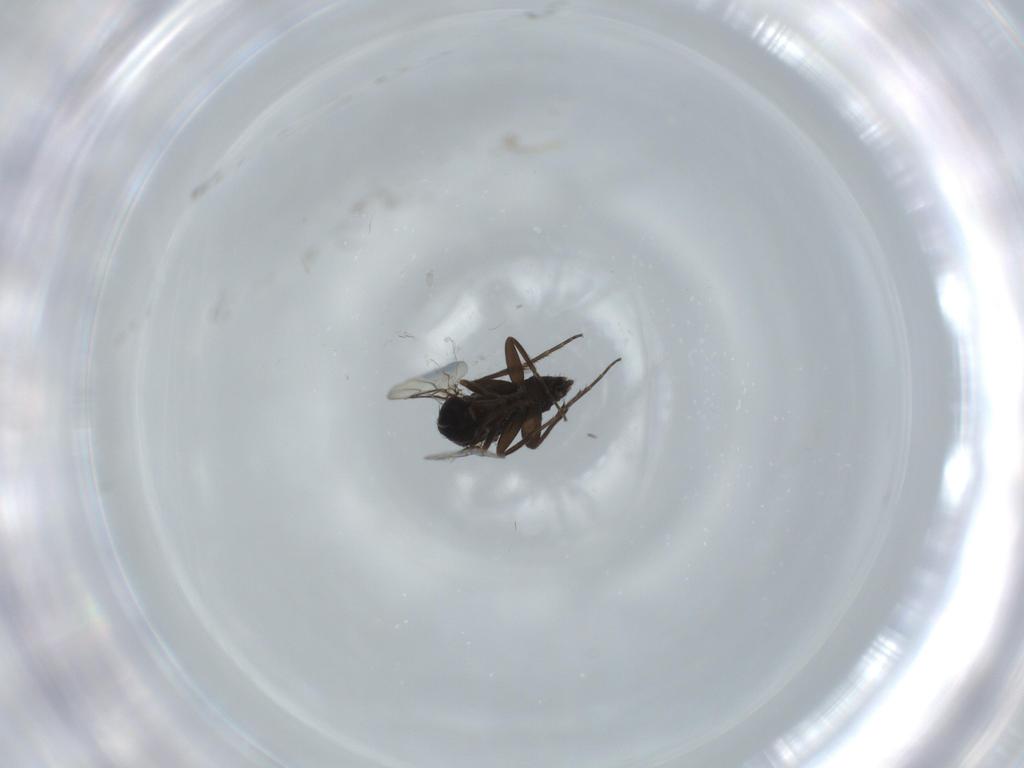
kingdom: Animalia
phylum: Arthropoda
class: Insecta
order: Diptera
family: Phoridae
